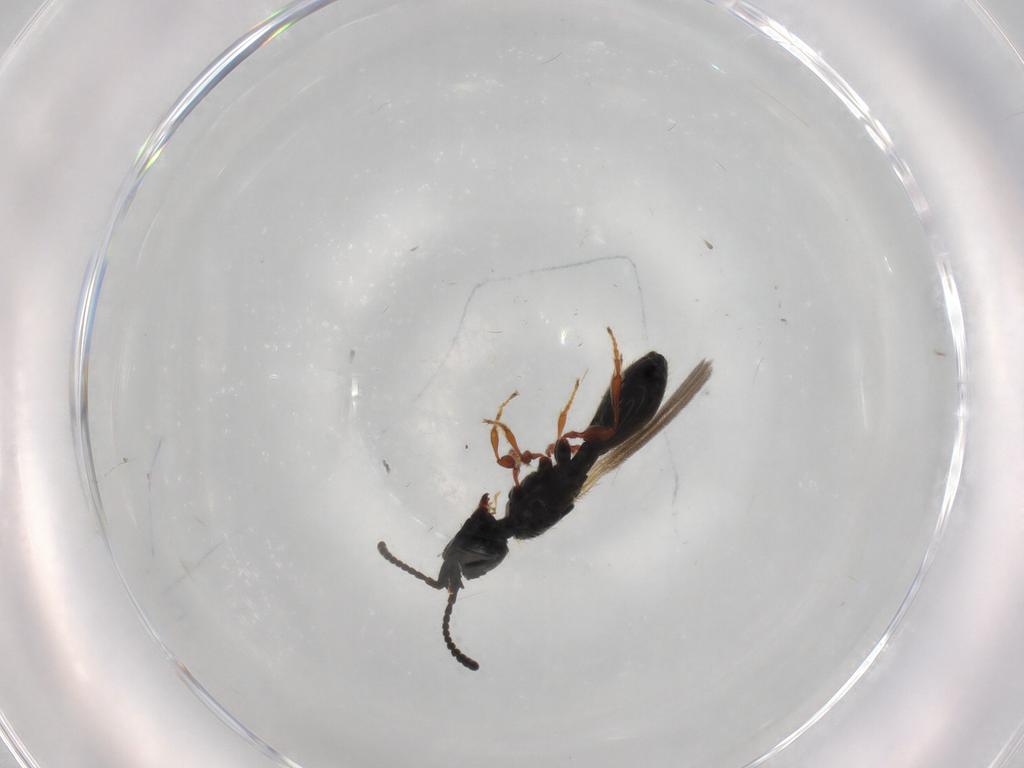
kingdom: Animalia
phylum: Arthropoda
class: Insecta
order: Hymenoptera
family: Diapriidae
